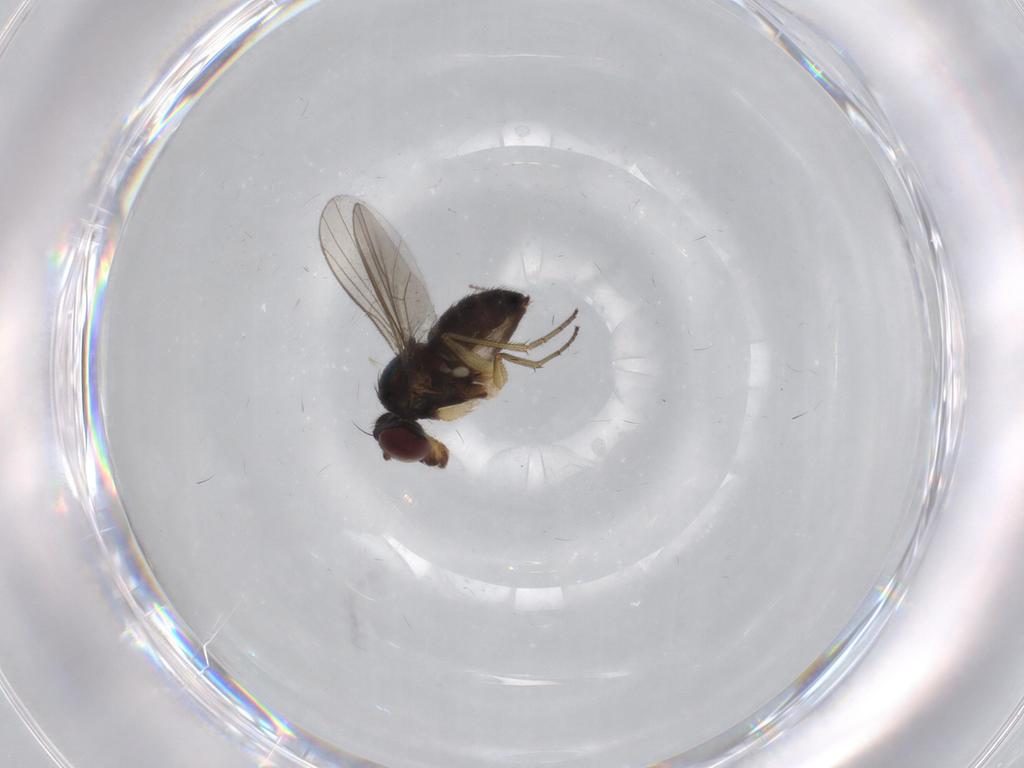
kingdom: Animalia
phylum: Arthropoda
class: Insecta
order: Diptera
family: Dolichopodidae
